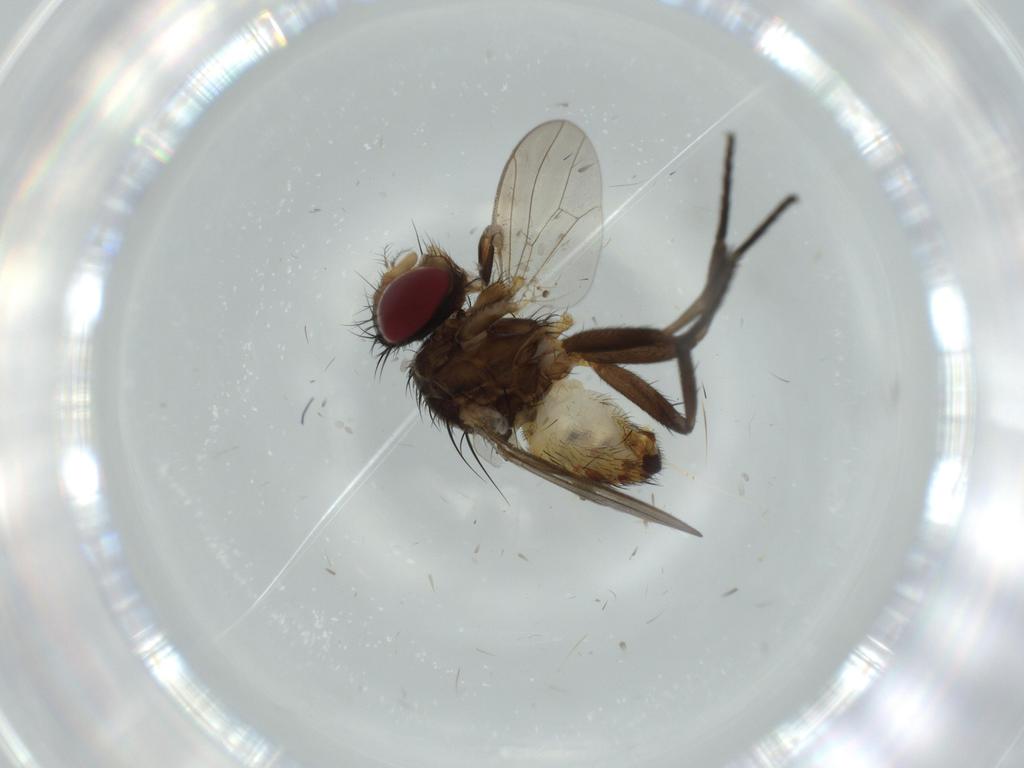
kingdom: Animalia
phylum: Arthropoda
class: Insecta
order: Diptera
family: Anthomyiidae
